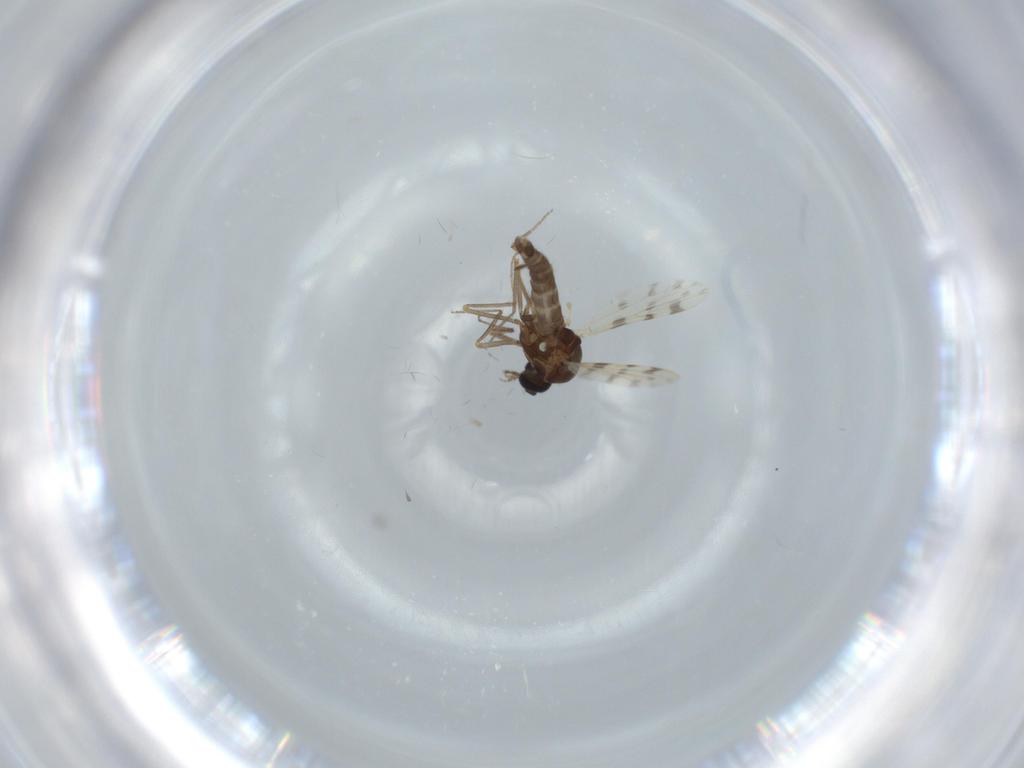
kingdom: Animalia
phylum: Arthropoda
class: Insecta
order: Diptera
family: Ceratopogonidae
